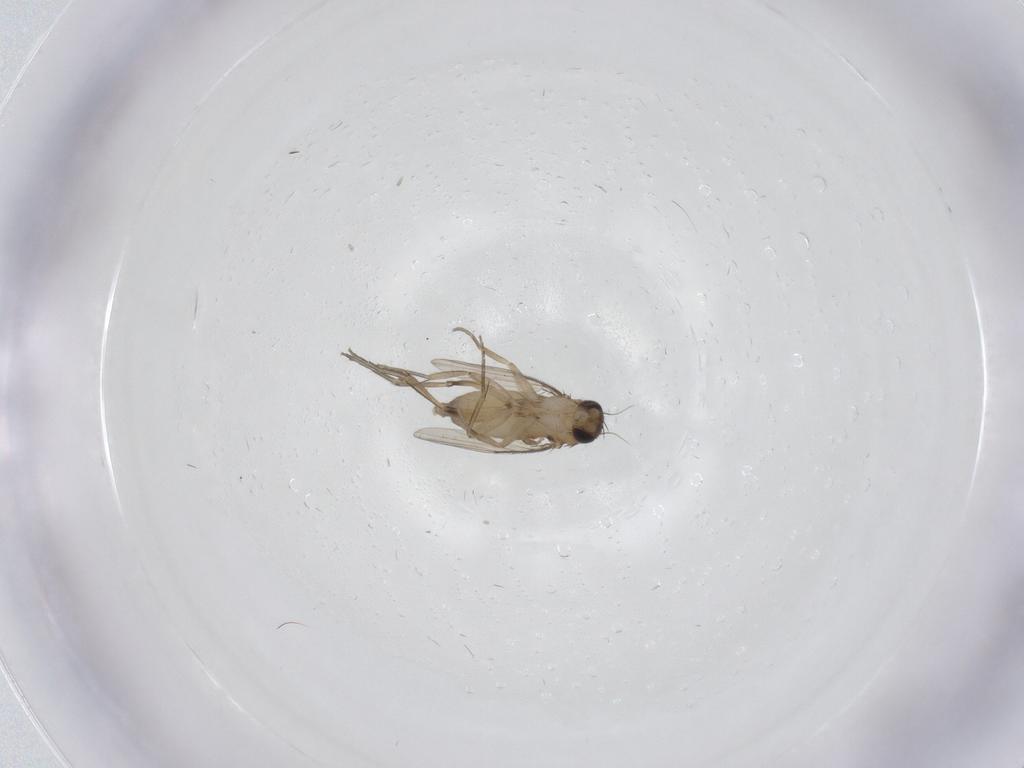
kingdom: Animalia
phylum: Arthropoda
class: Insecta
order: Diptera
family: Phoridae
